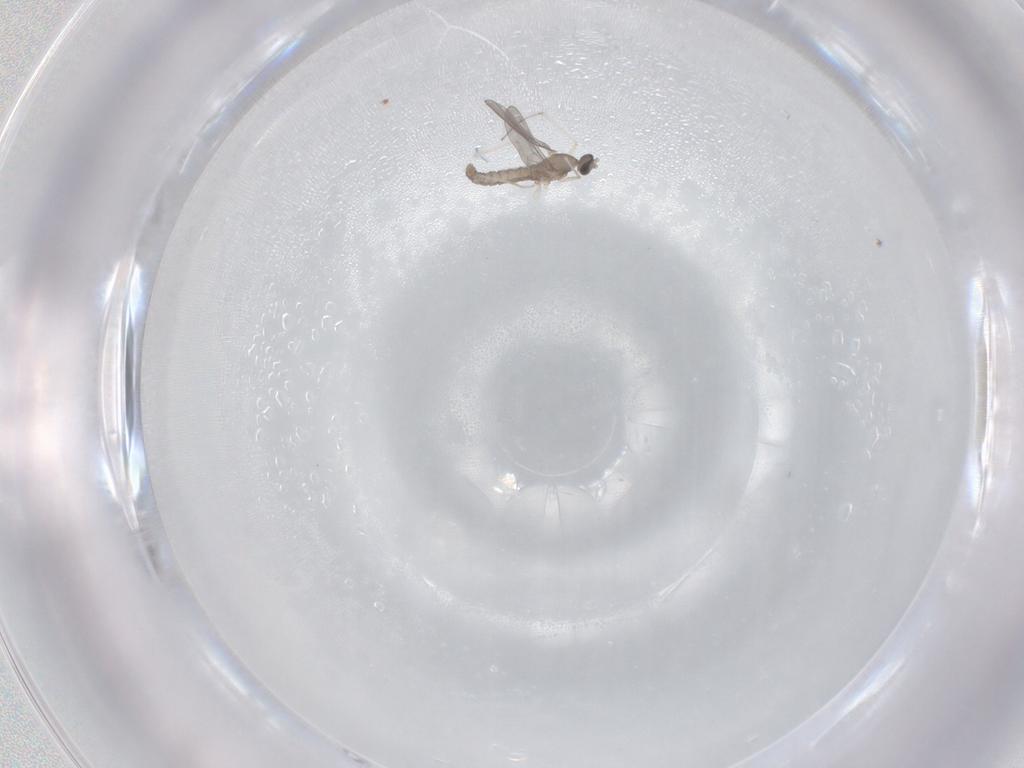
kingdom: Animalia
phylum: Arthropoda
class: Insecta
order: Diptera
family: Cecidomyiidae
